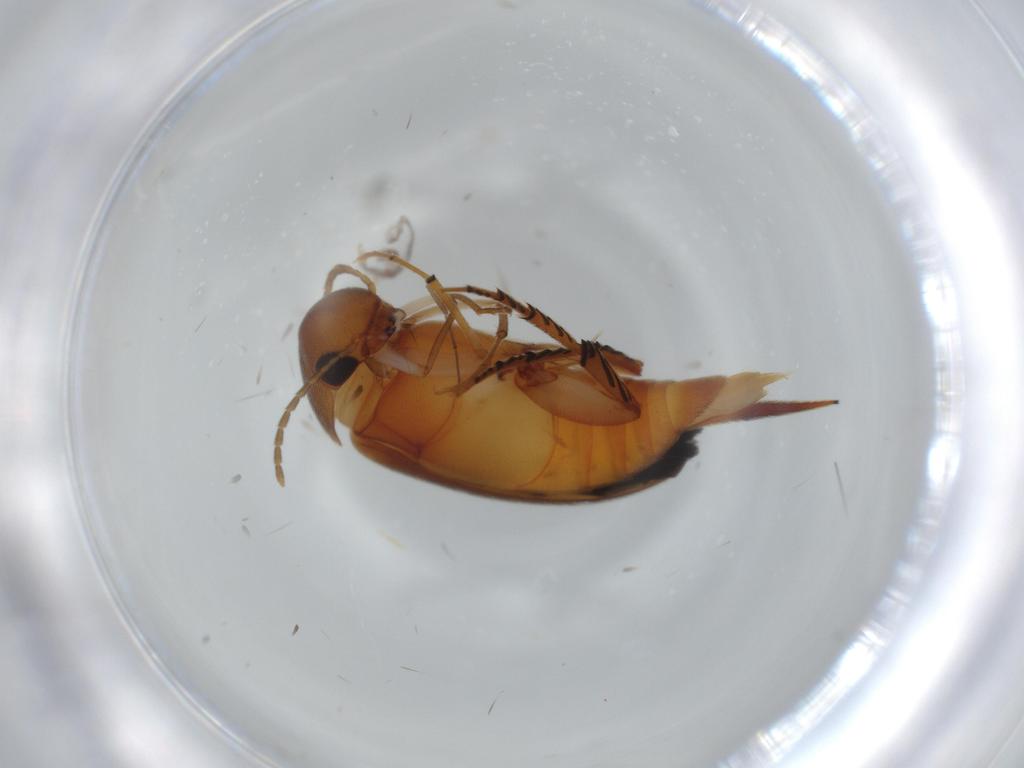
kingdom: Animalia
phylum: Arthropoda
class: Insecta
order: Coleoptera
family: Mordellidae
